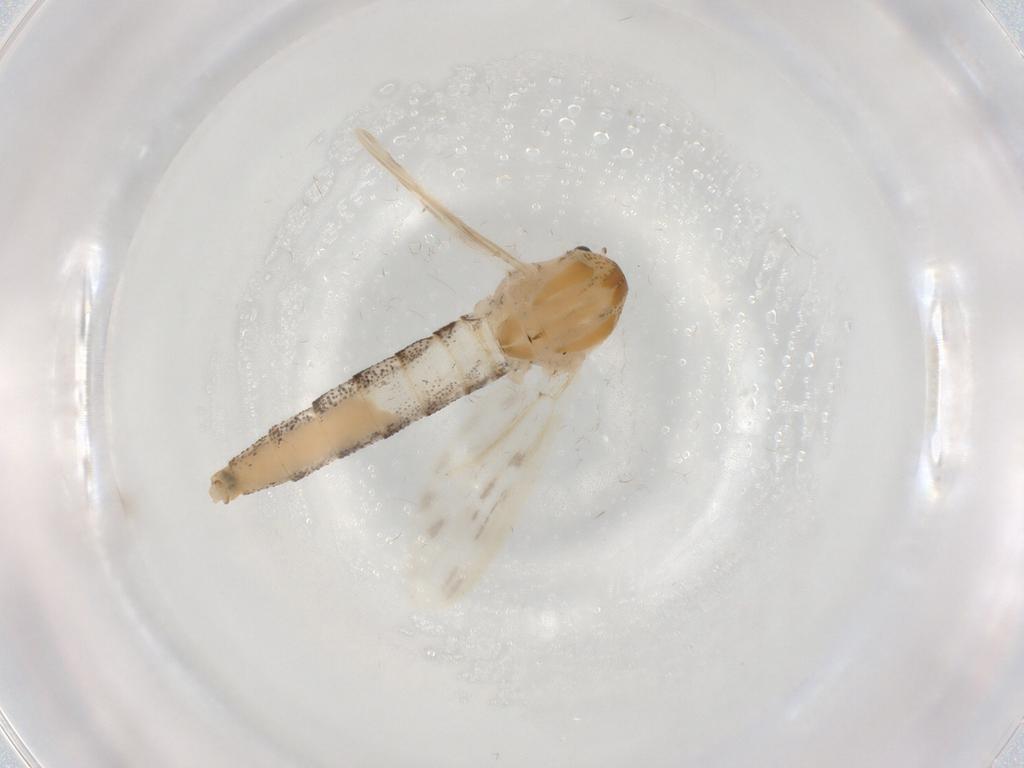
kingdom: Animalia
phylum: Arthropoda
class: Insecta
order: Diptera
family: Chaoboridae
